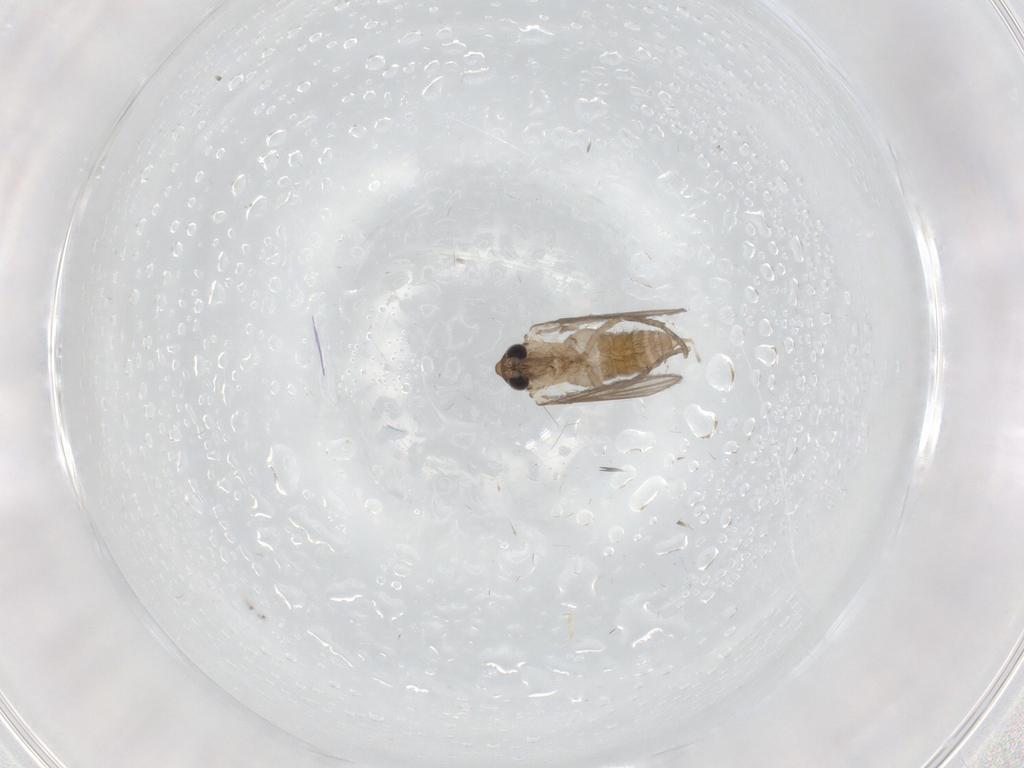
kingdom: Animalia
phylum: Arthropoda
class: Insecta
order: Diptera
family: Psychodidae
